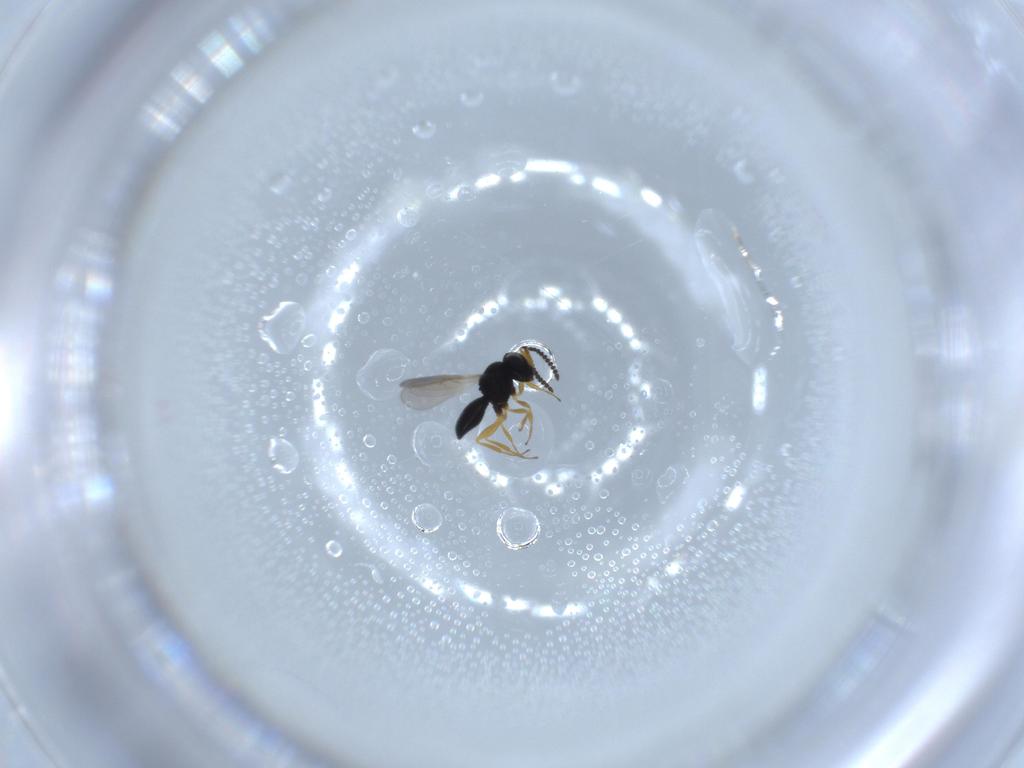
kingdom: Animalia
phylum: Arthropoda
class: Insecta
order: Hymenoptera
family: Scelionidae
